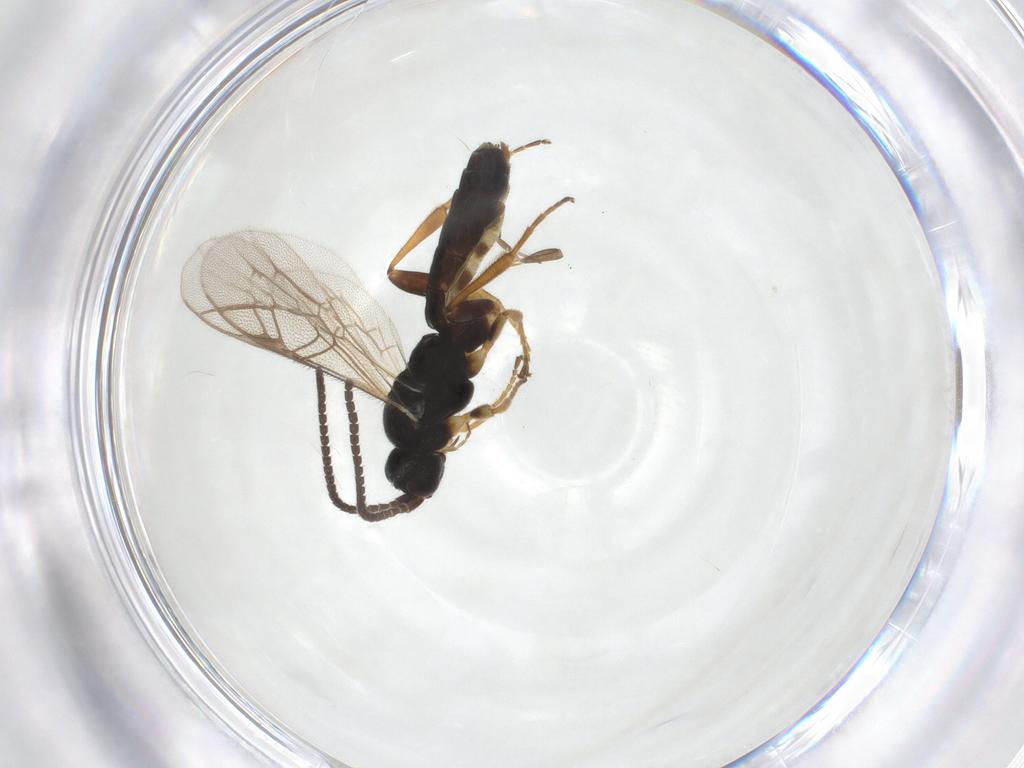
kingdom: Animalia
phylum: Arthropoda
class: Insecta
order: Hymenoptera
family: Ichneumonidae
